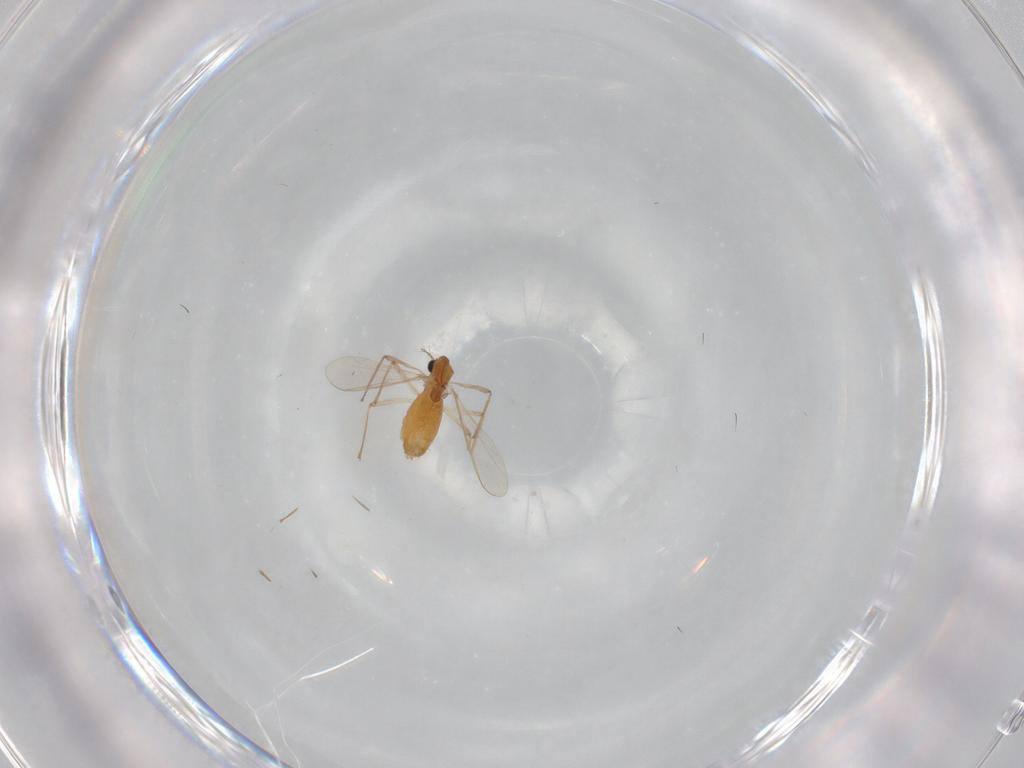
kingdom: Animalia
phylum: Arthropoda
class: Insecta
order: Diptera
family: Chironomidae
